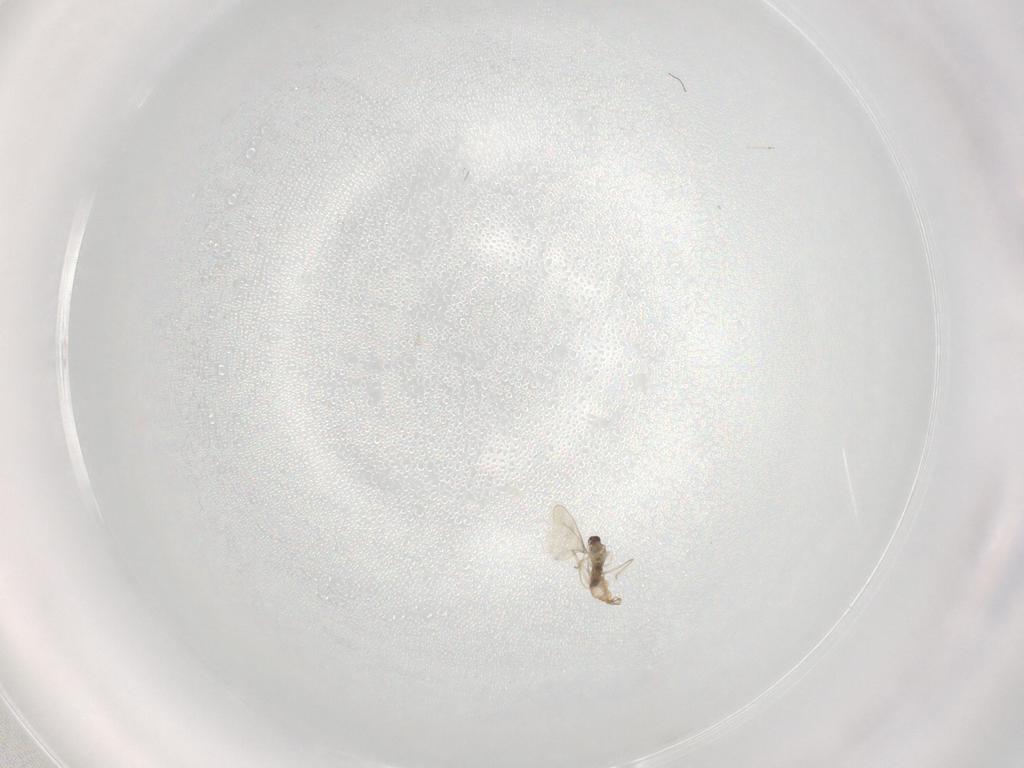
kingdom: Animalia
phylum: Arthropoda
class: Insecta
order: Diptera
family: Cecidomyiidae
